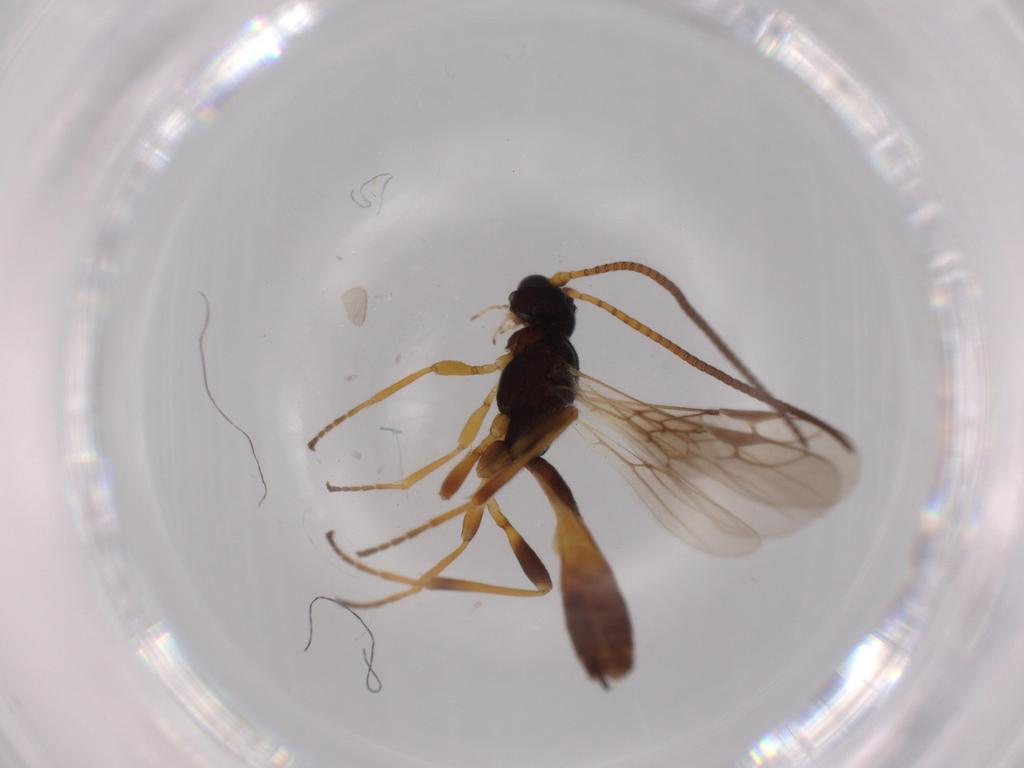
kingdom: Animalia
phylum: Arthropoda
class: Insecta
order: Hymenoptera
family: Braconidae
